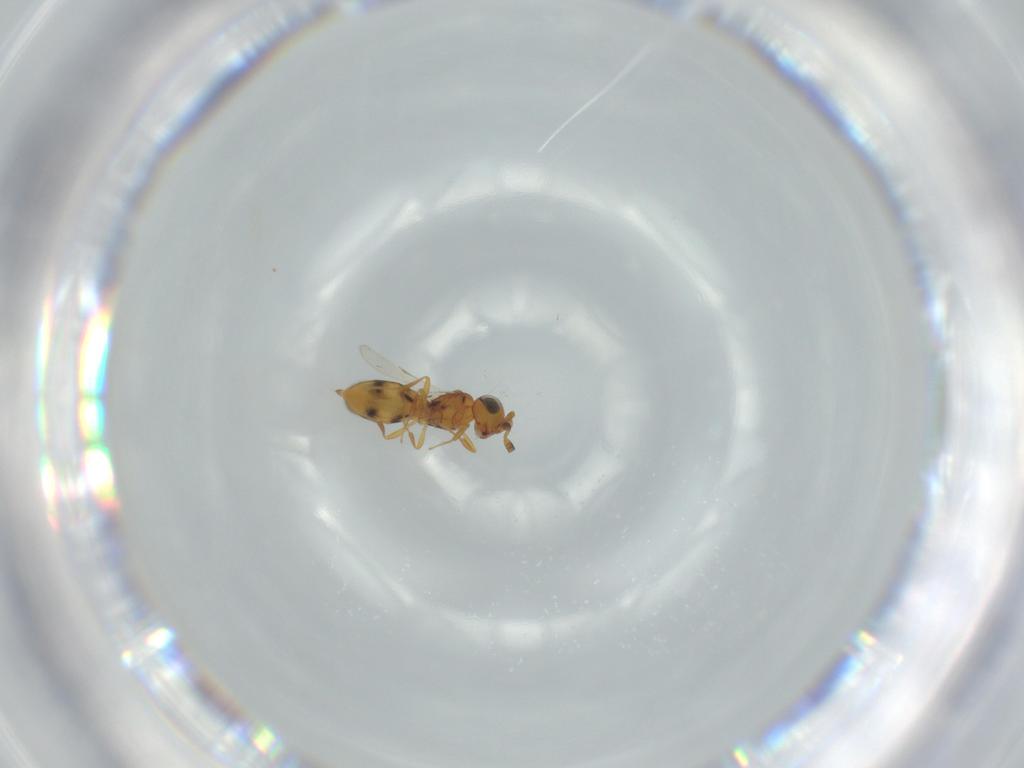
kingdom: Animalia
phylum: Arthropoda
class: Insecta
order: Hymenoptera
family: Scelionidae
